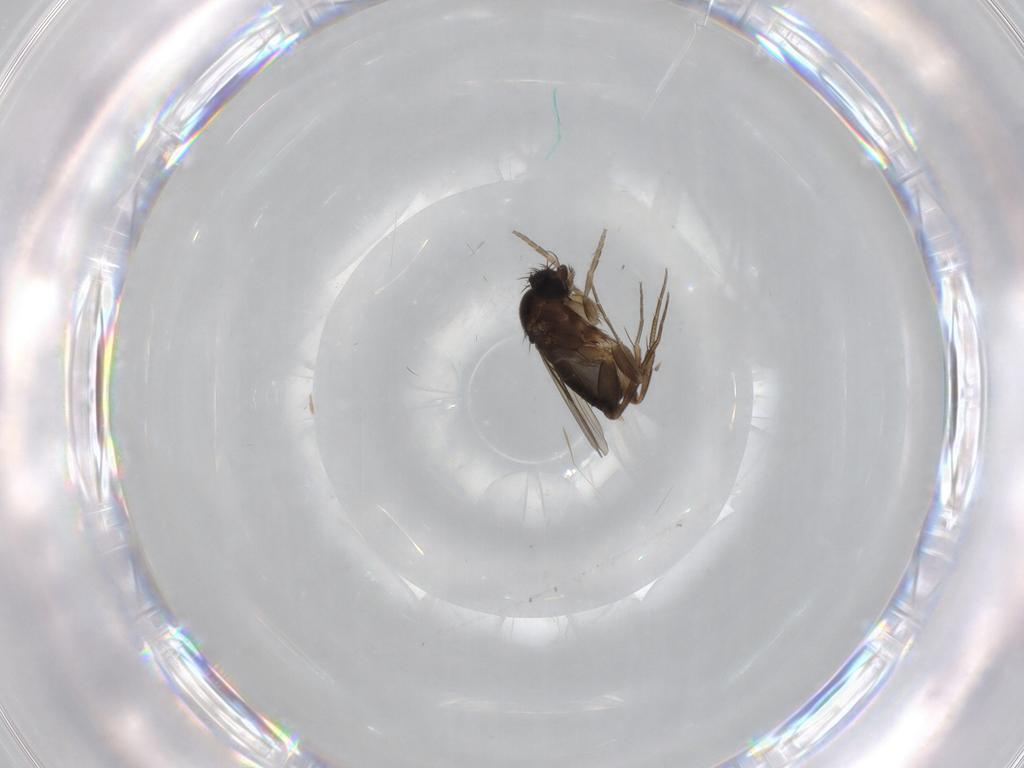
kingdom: Animalia
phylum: Arthropoda
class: Insecta
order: Diptera
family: Phoridae
